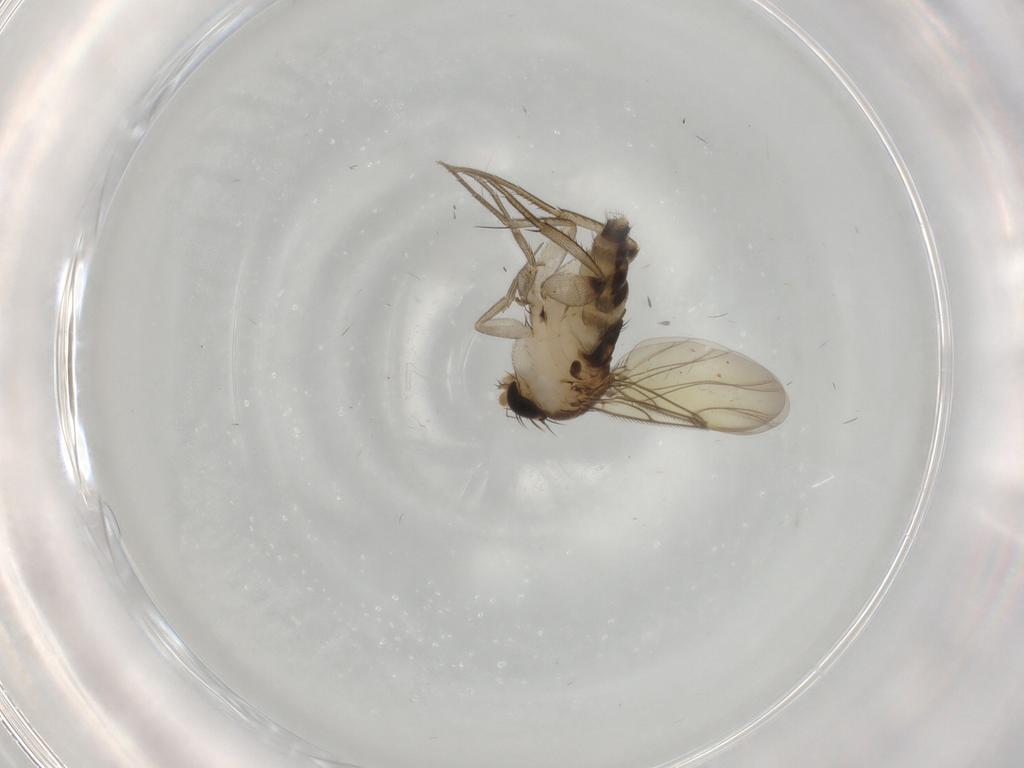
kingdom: Animalia
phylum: Arthropoda
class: Insecta
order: Diptera
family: Phoridae
